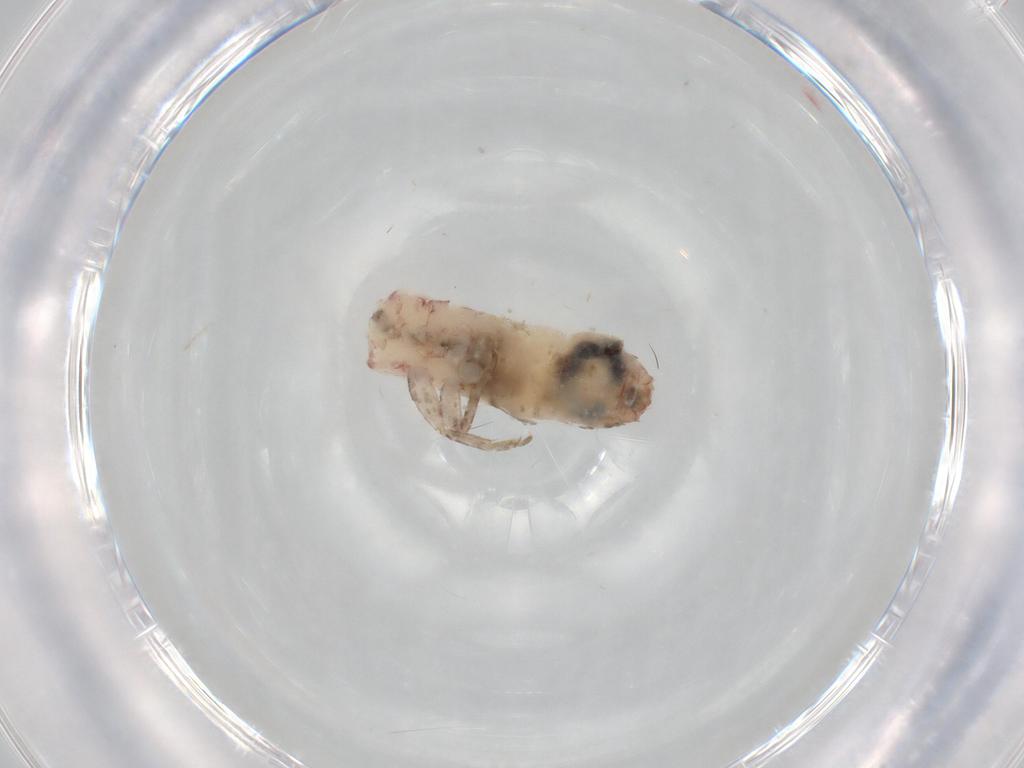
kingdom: Animalia
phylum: Arthropoda
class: Insecta
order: Orthoptera
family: Mogoplistidae
